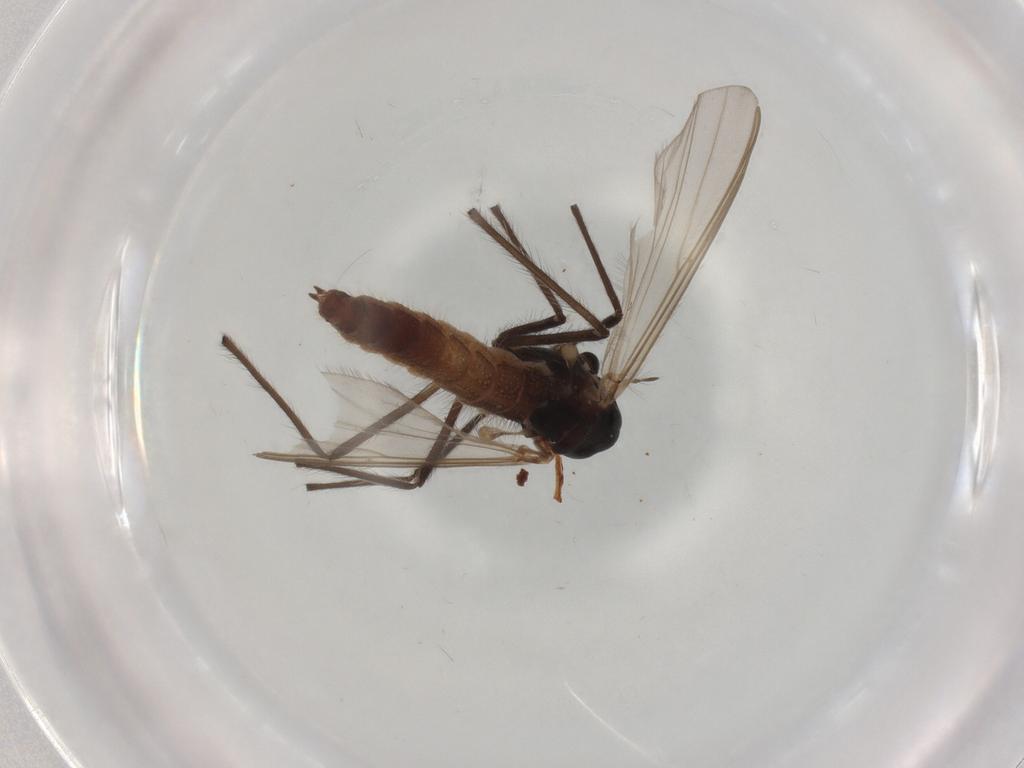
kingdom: Animalia
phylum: Arthropoda
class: Insecta
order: Diptera
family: Chironomidae
